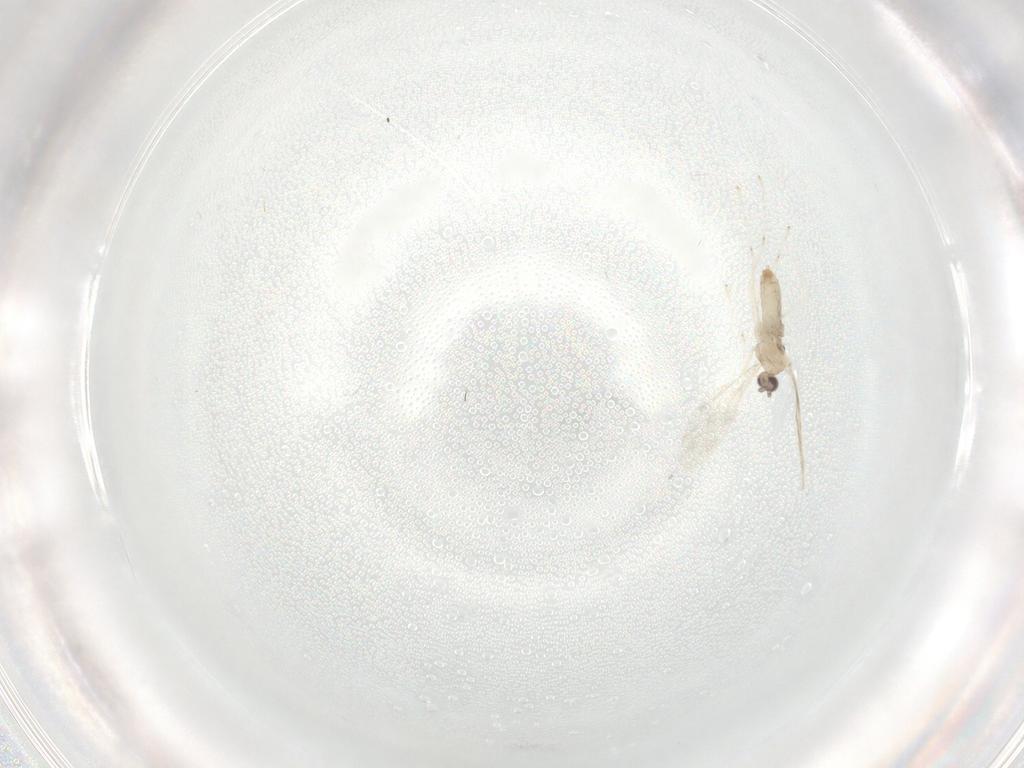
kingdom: Animalia
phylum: Arthropoda
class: Insecta
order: Diptera
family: Cecidomyiidae
